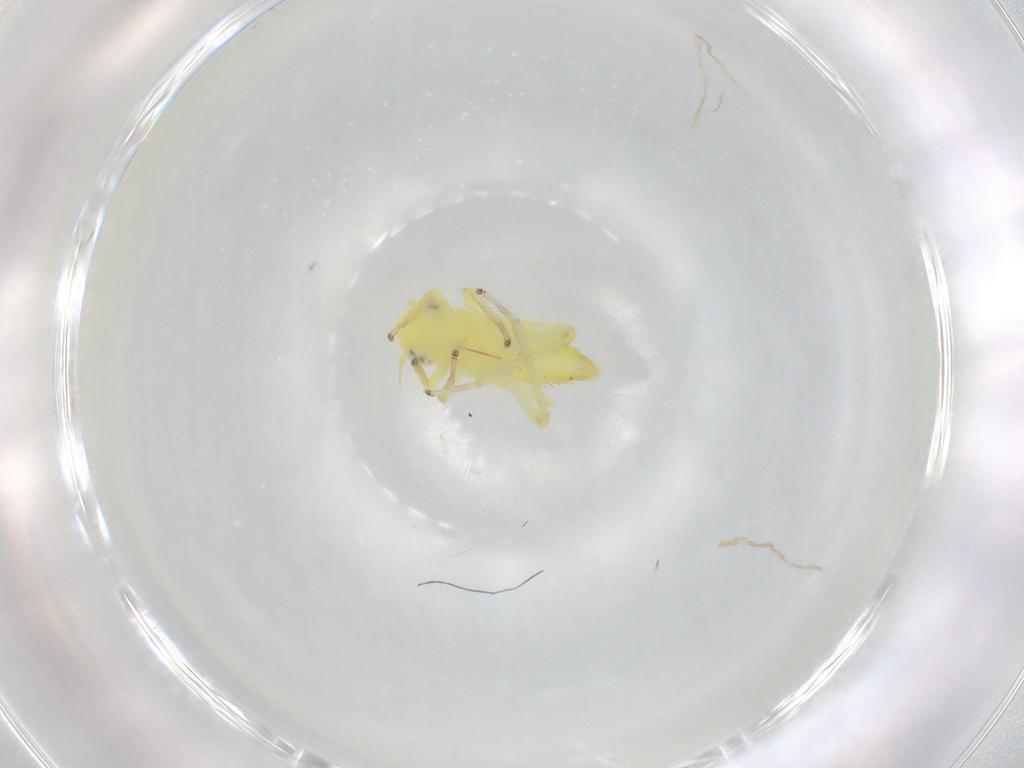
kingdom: Animalia
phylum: Arthropoda
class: Insecta
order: Hemiptera
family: Cicadellidae
